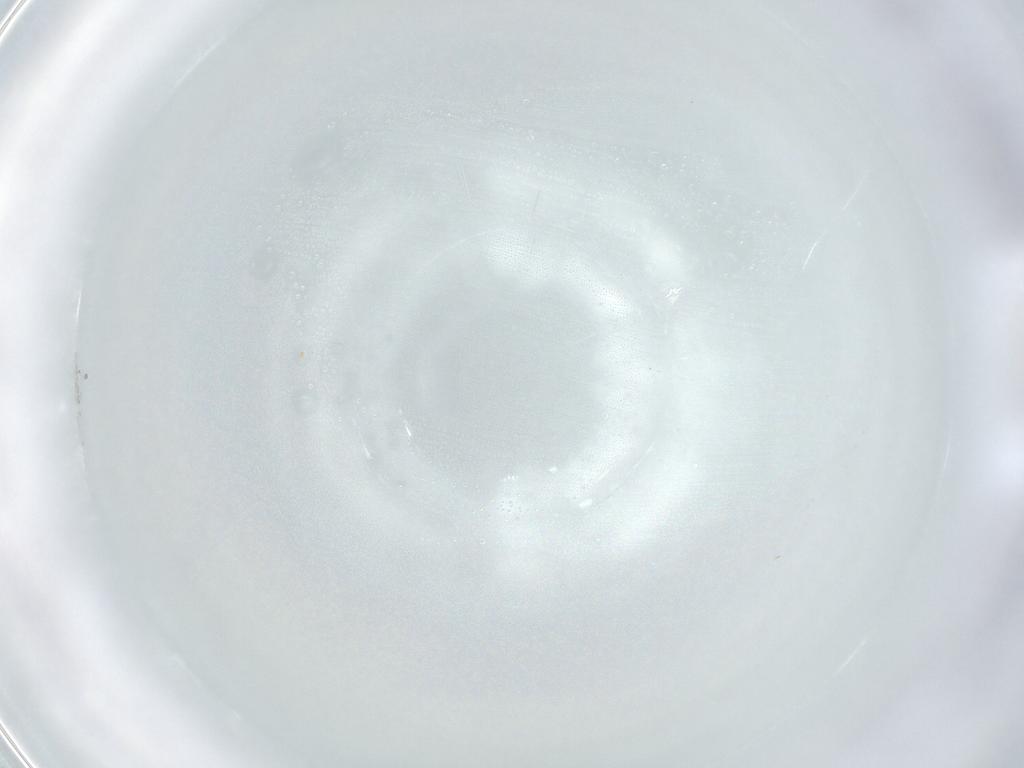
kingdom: Animalia
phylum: Arthropoda
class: Insecta
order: Diptera
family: Cecidomyiidae
